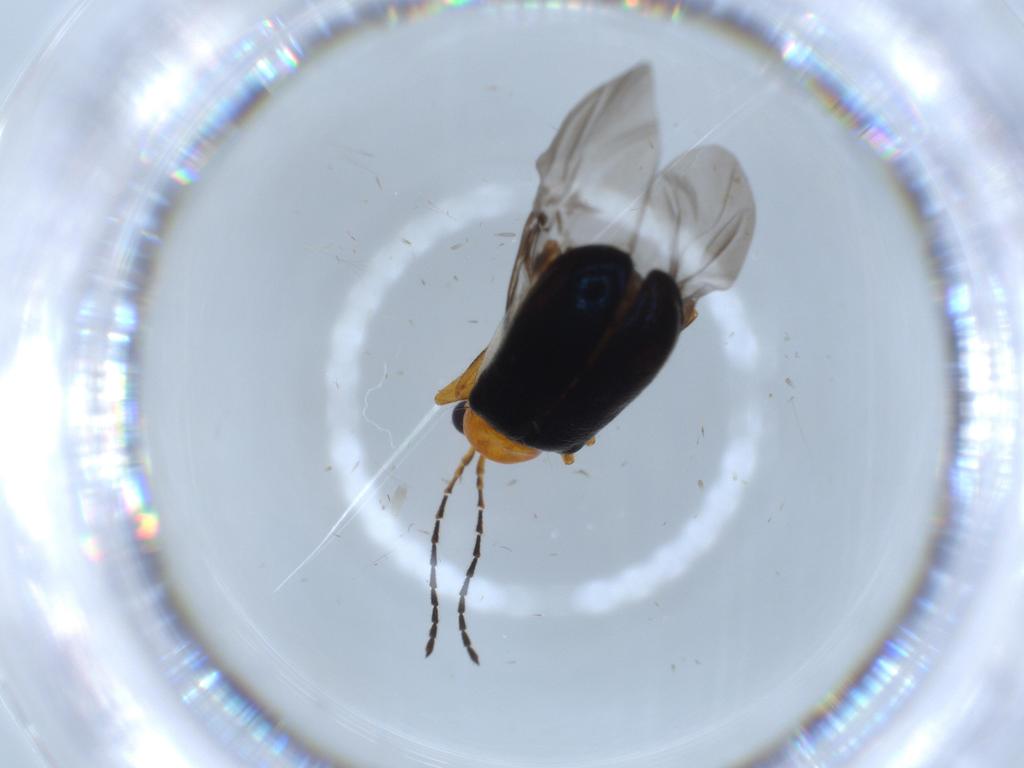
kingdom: Animalia
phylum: Arthropoda
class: Insecta
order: Coleoptera
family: Chrysomelidae
